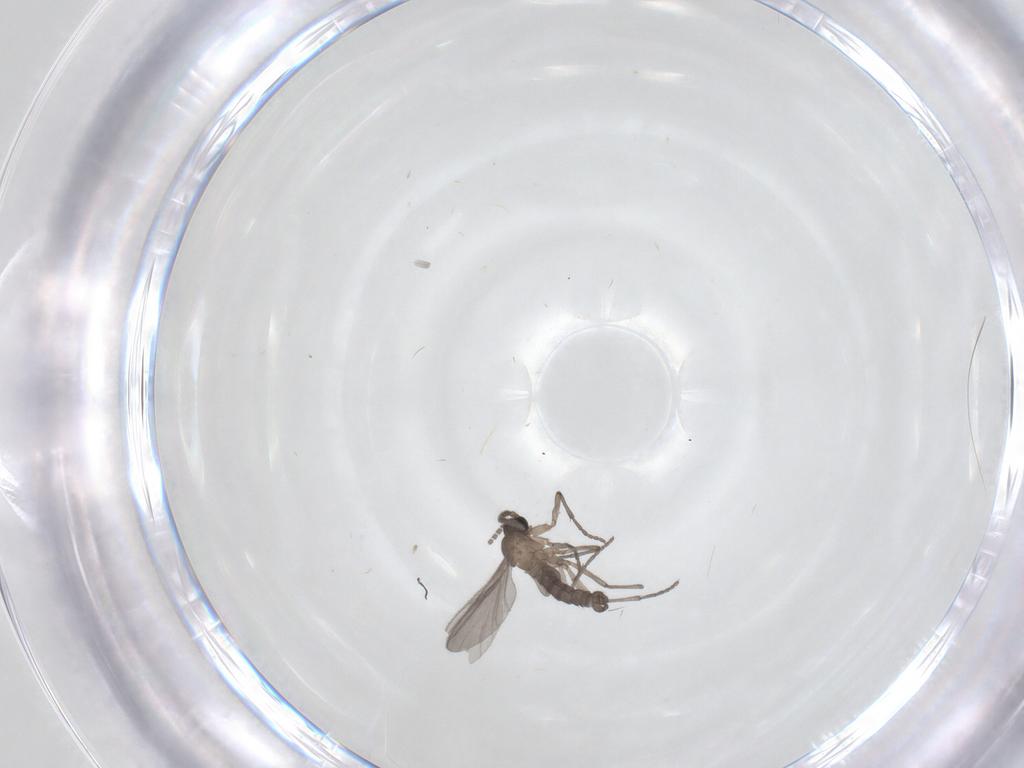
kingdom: Animalia
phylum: Arthropoda
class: Insecta
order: Diptera
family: Sciaridae
